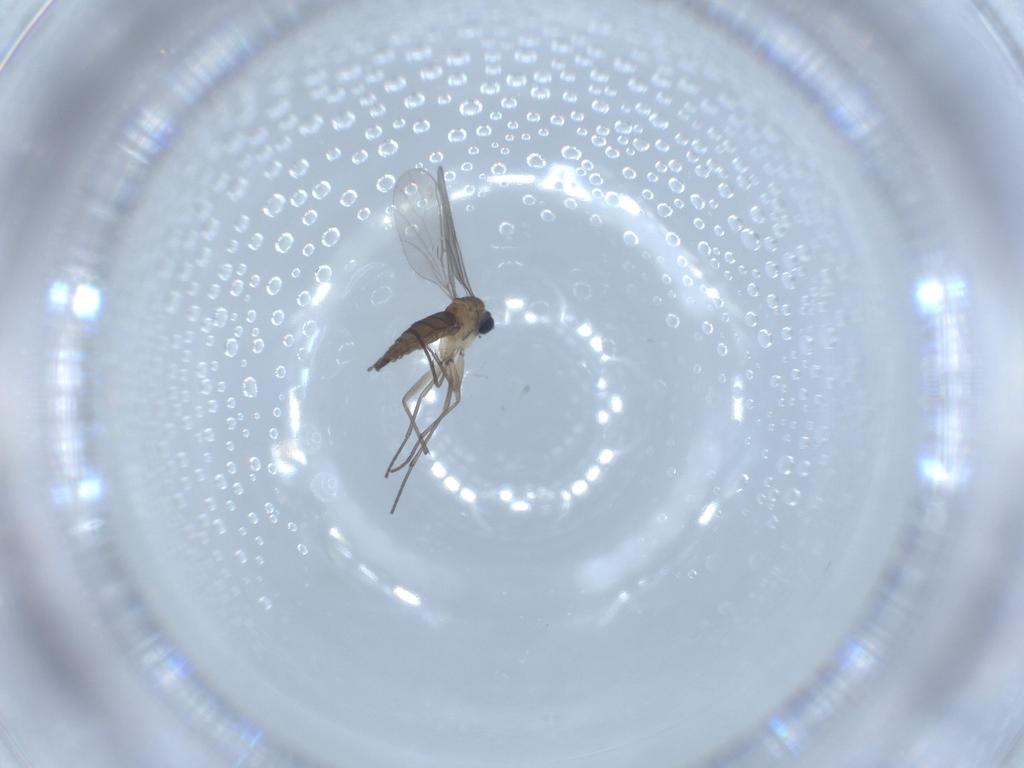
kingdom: Animalia
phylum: Arthropoda
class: Insecta
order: Diptera
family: Sciaridae
